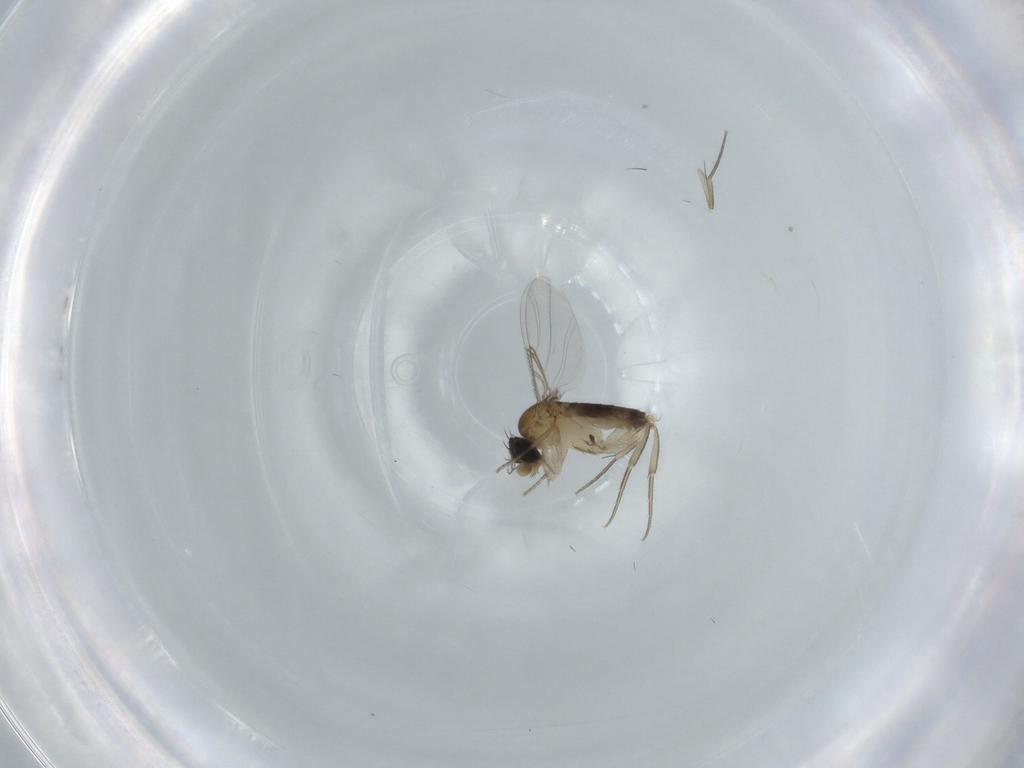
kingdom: Animalia
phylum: Arthropoda
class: Insecta
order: Diptera
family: Phoridae
